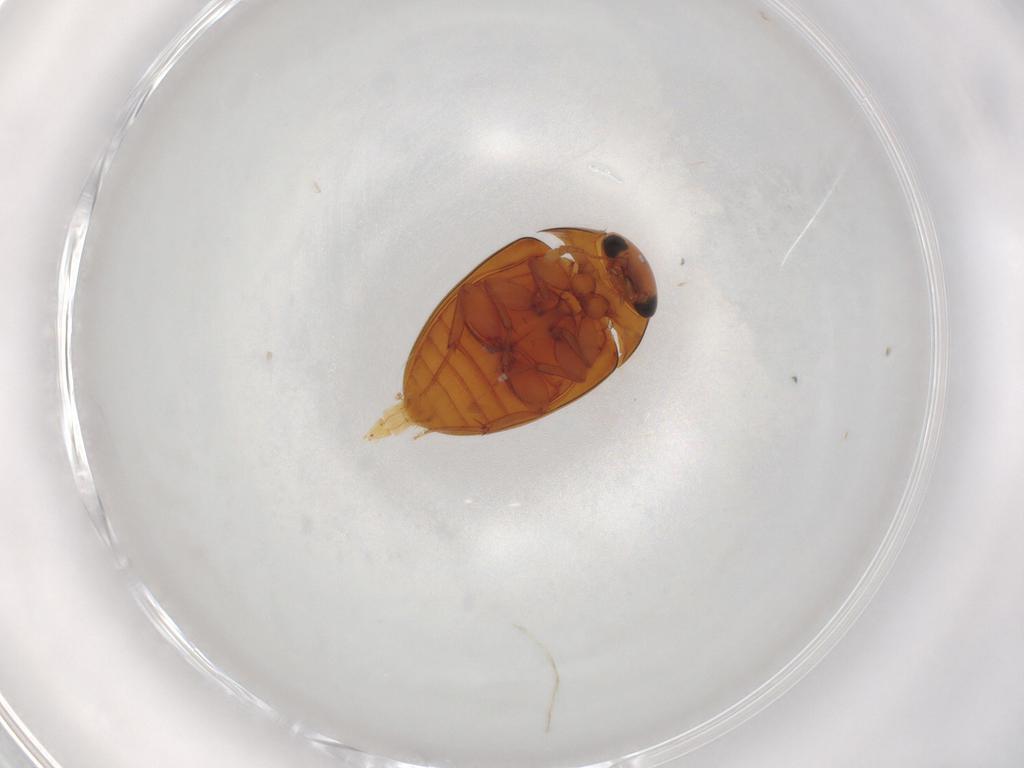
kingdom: Animalia
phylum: Arthropoda
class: Insecta
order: Coleoptera
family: Phalacridae
